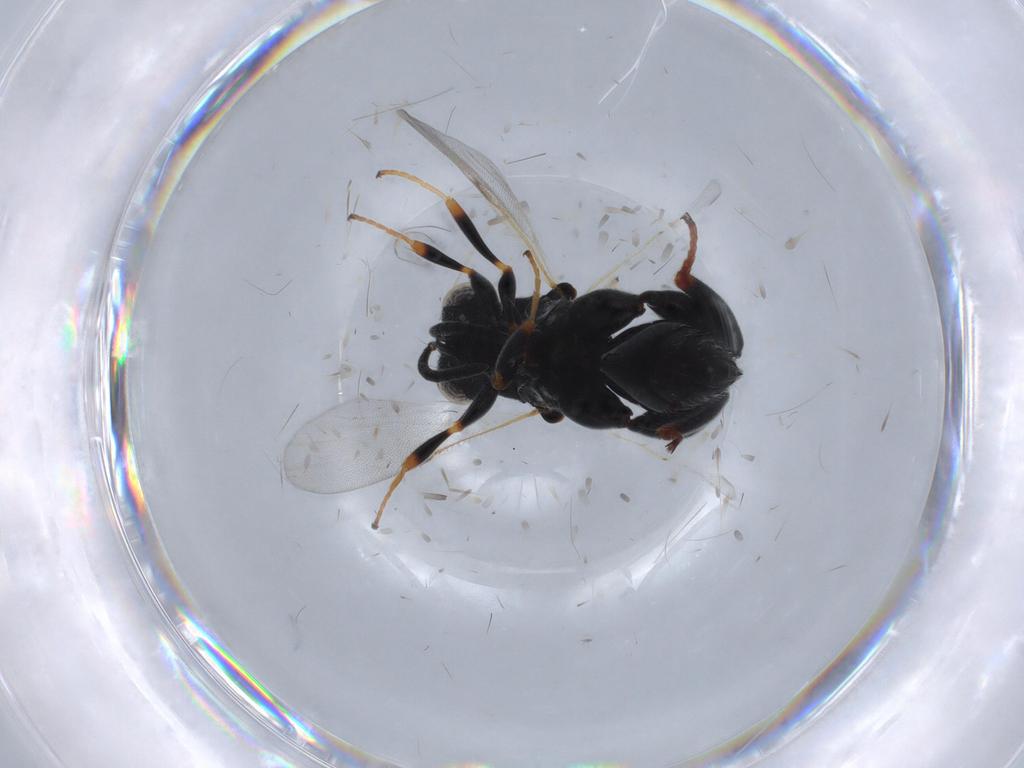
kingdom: Animalia
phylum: Arthropoda
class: Insecta
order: Hymenoptera
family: Chalcididae
